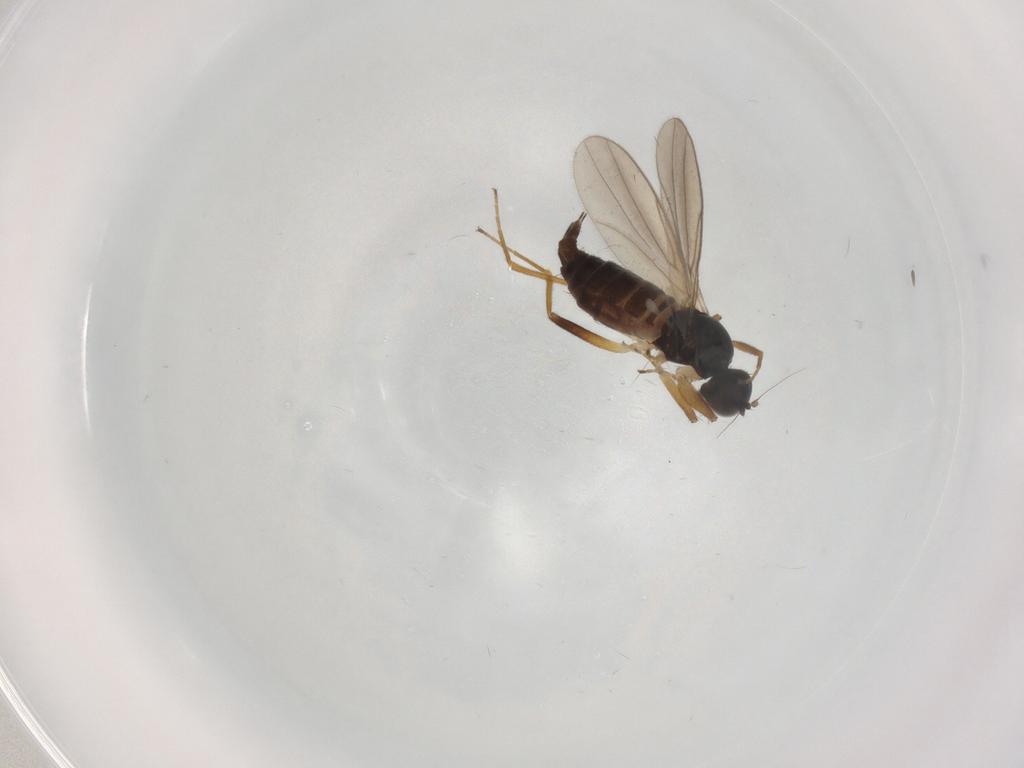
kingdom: Animalia
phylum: Arthropoda
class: Insecta
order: Diptera
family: Hybotidae
